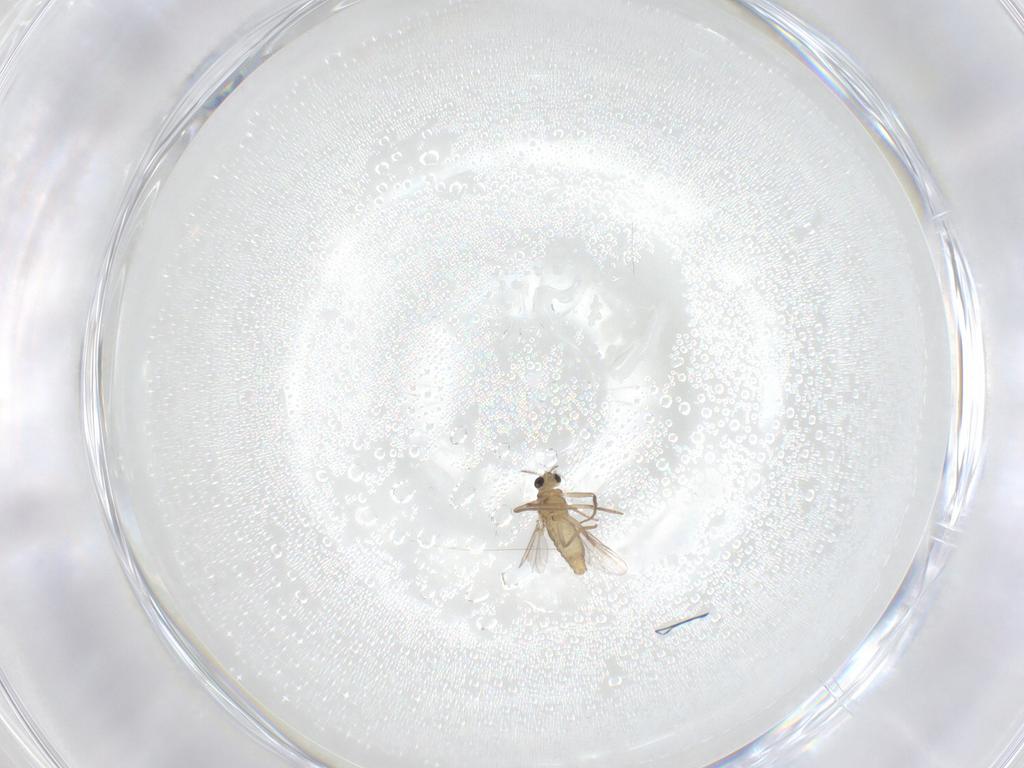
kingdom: Animalia
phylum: Arthropoda
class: Insecta
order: Diptera
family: Chironomidae
